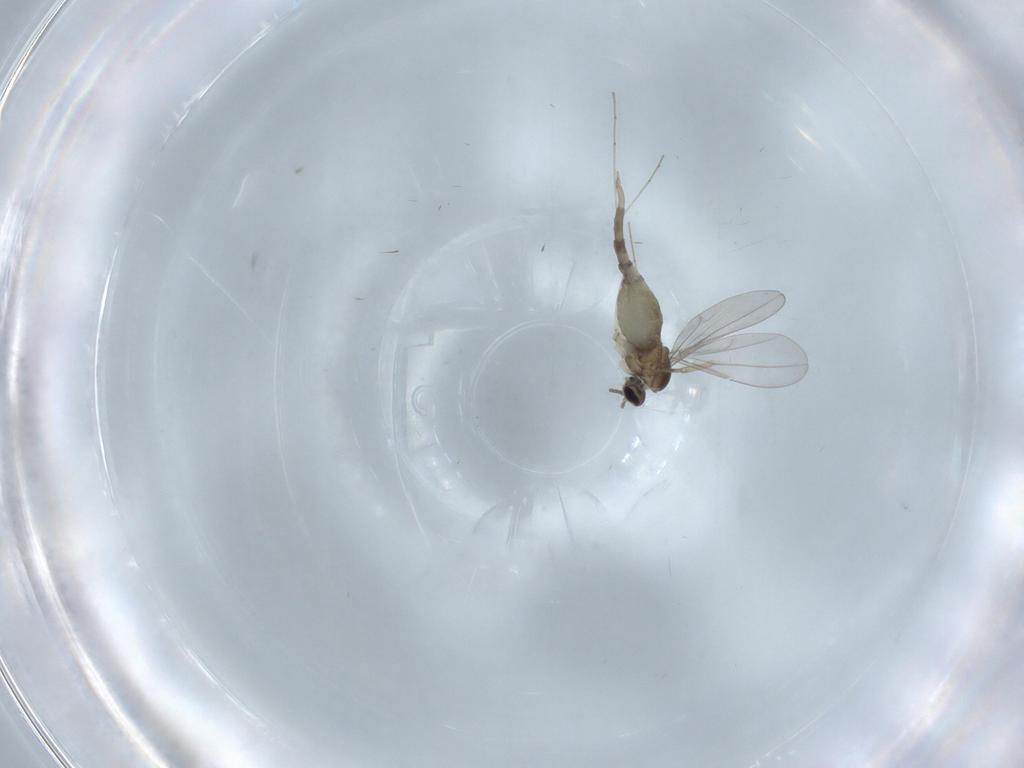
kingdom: Animalia
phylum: Arthropoda
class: Insecta
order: Diptera
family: Cecidomyiidae
